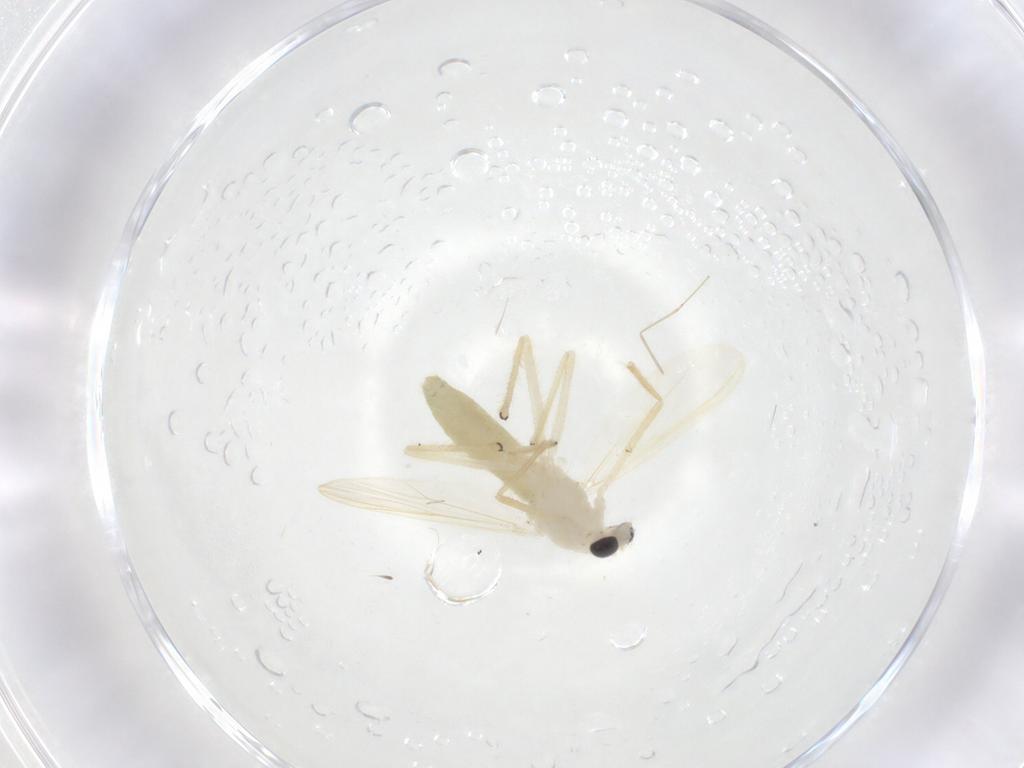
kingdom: Animalia
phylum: Arthropoda
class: Insecta
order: Diptera
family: Chironomidae
